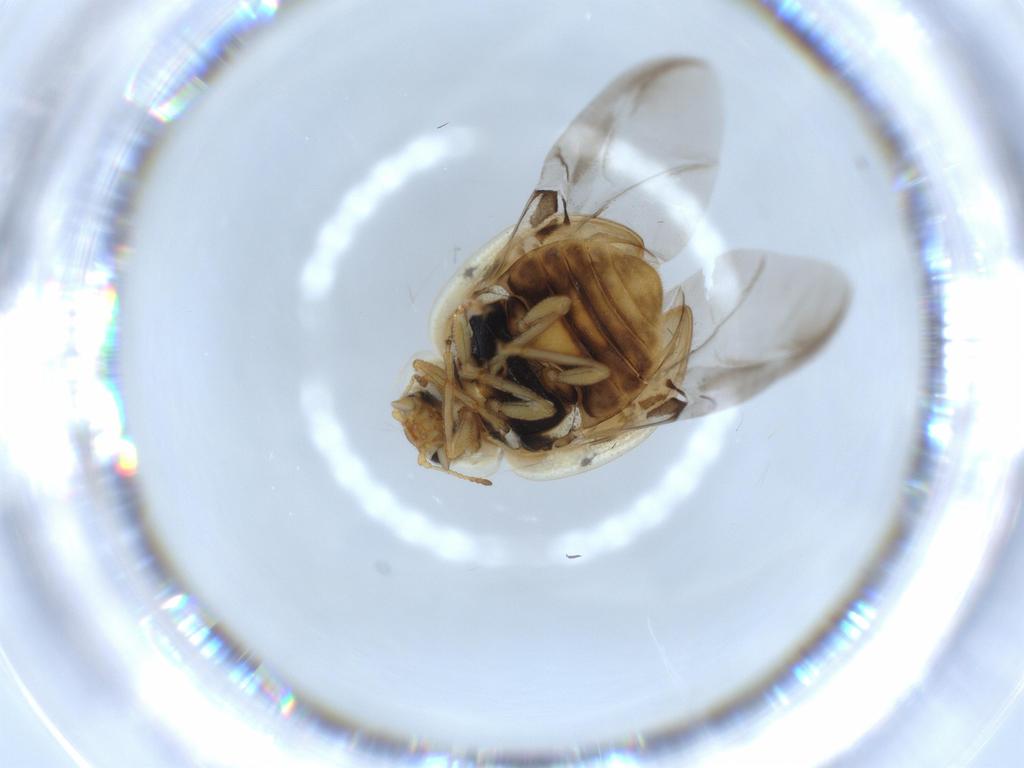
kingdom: Animalia
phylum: Arthropoda
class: Insecta
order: Coleoptera
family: Coccinellidae
